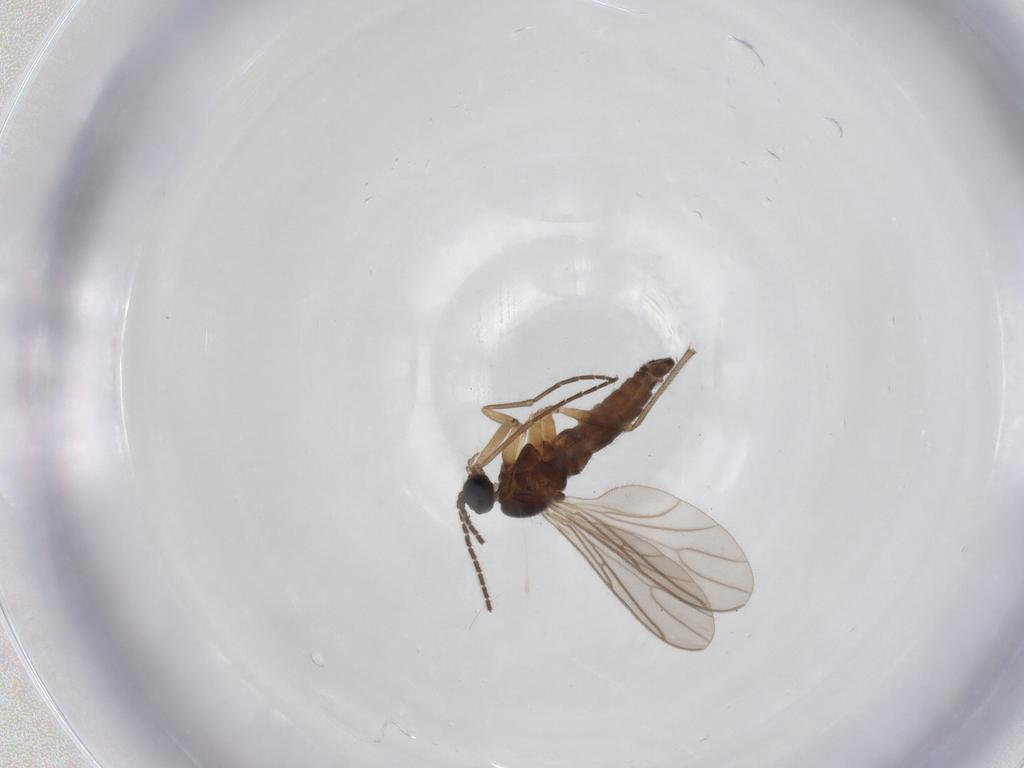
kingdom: Animalia
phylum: Arthropoda
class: Insecta
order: Diptera
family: Sciaridae
